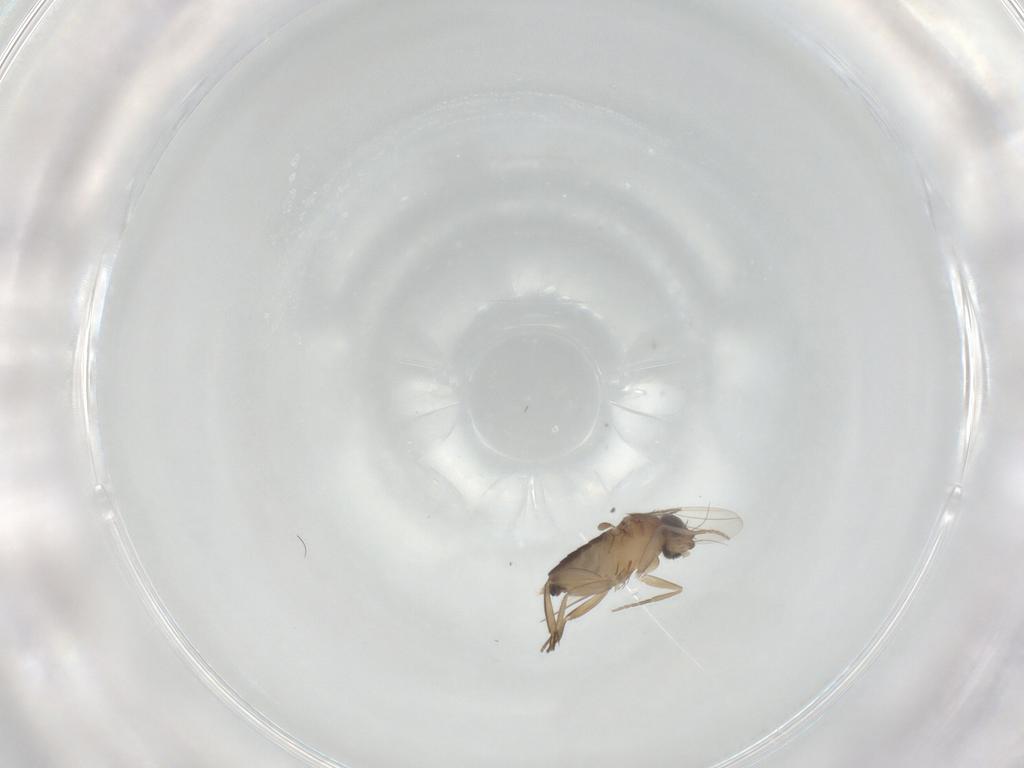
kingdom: Animalia
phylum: Arthropoda
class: Insecta
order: Diptera
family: Phoridae
